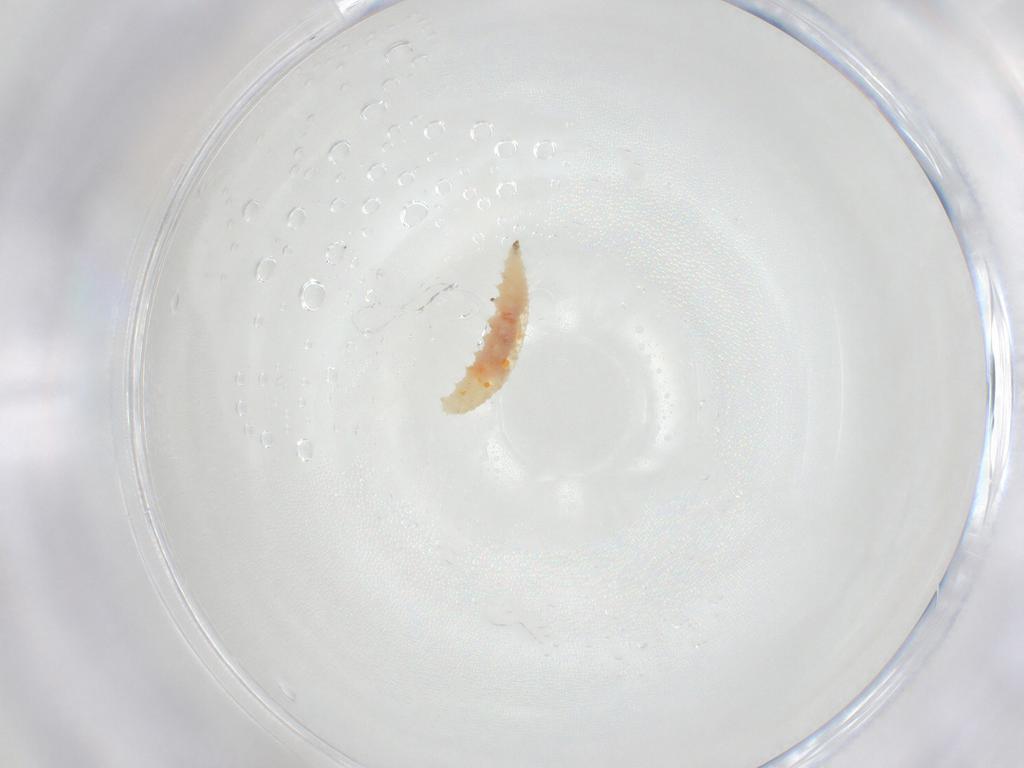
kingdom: Animalia
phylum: Arthropoda
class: Insecta
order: Diptera
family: Cecidomyiidae
